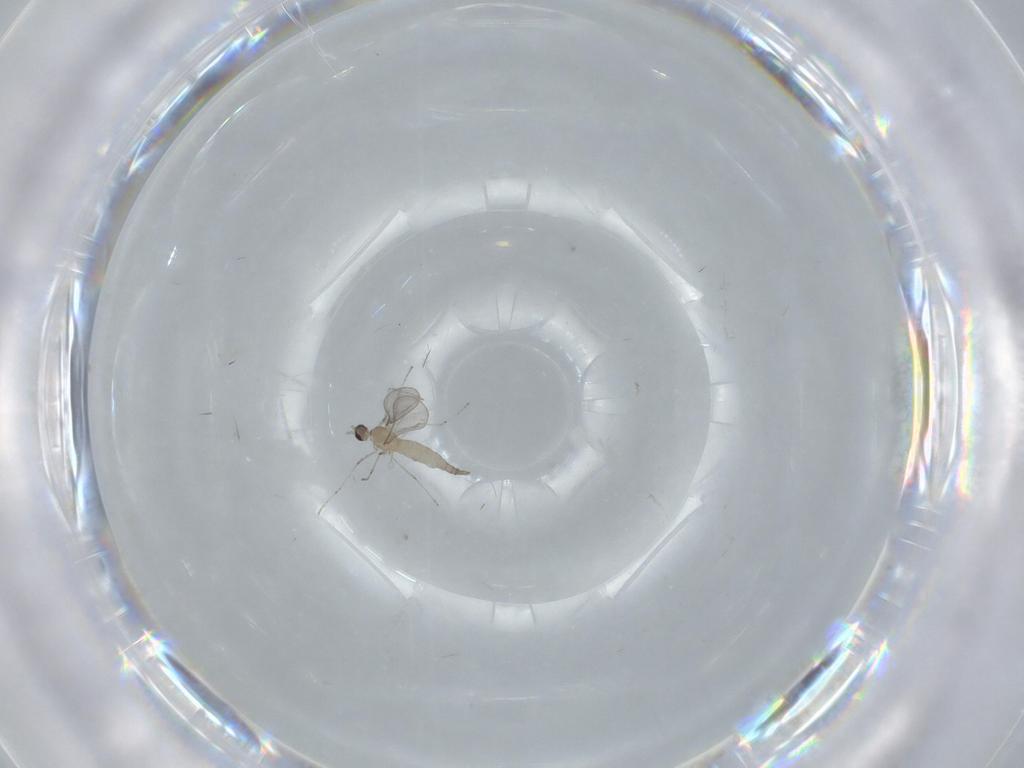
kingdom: Animalia
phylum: Arthropoda
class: Insecta
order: Diptera
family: Cecidomyiidae
